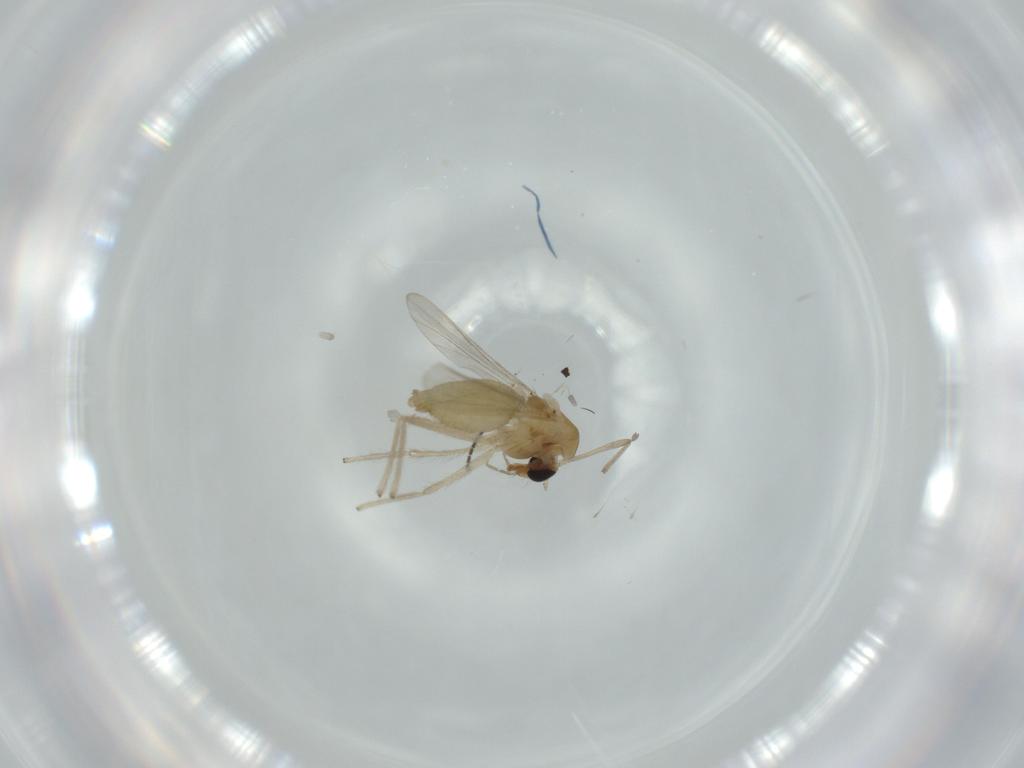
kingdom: Animalia
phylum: Arthropoda
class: Insecta
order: Diptera
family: Chironomidae
